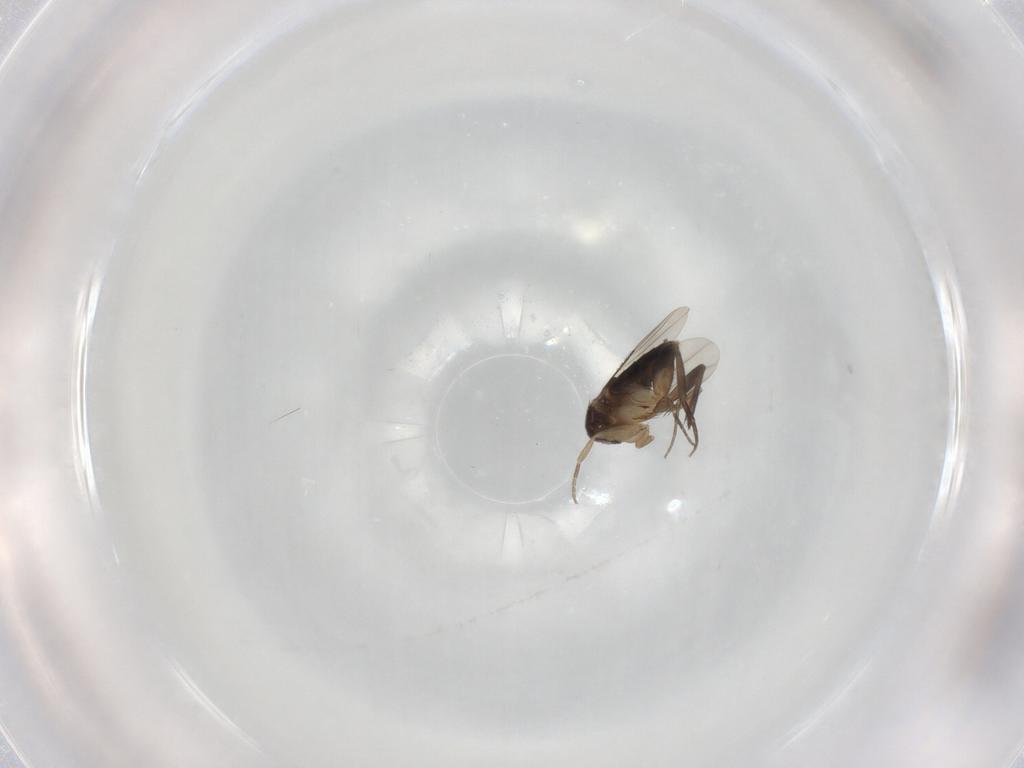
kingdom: Animalia
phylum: Arthropoda
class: Insecta
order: Diptera
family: Phoridae
